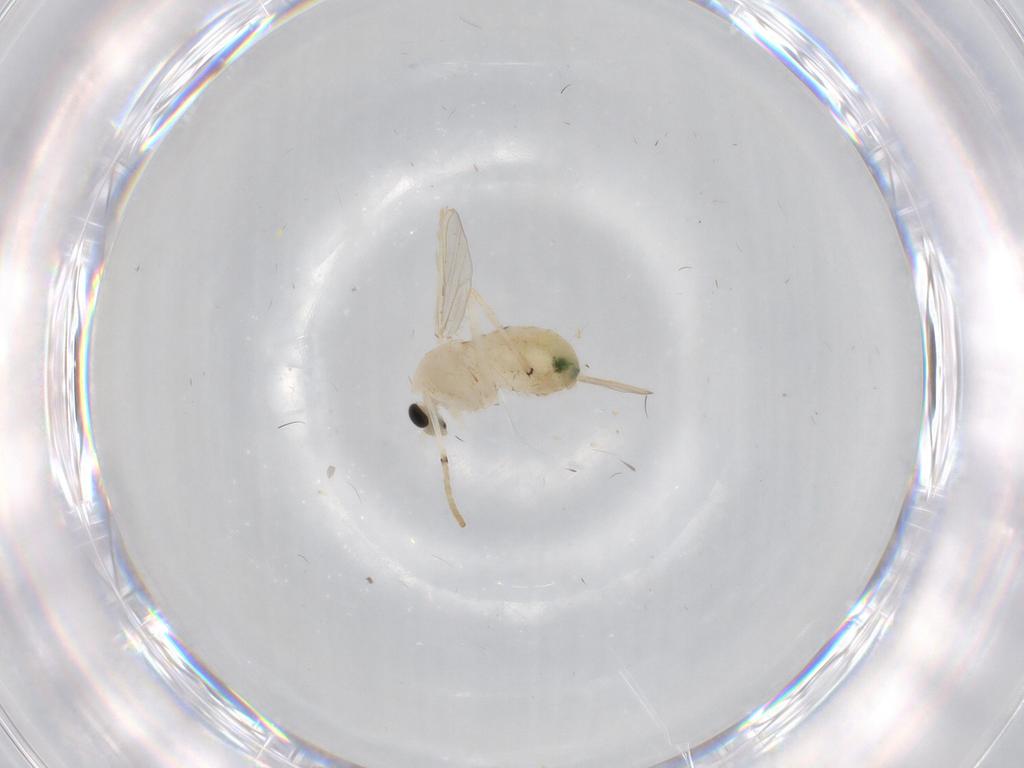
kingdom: Animalia
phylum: Arthropoda
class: Insecta
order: Diptera
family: Chironomidae
